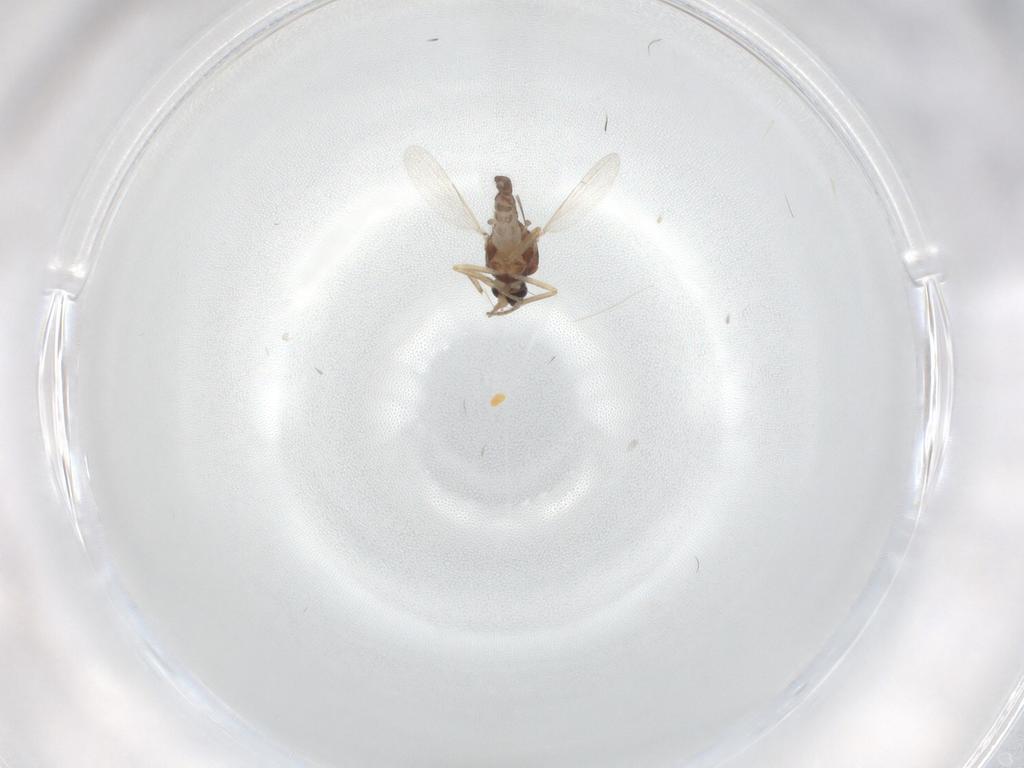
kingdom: Animalia
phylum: Arthropoda
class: Insecta
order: Diptera
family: Ceratopogonidae
